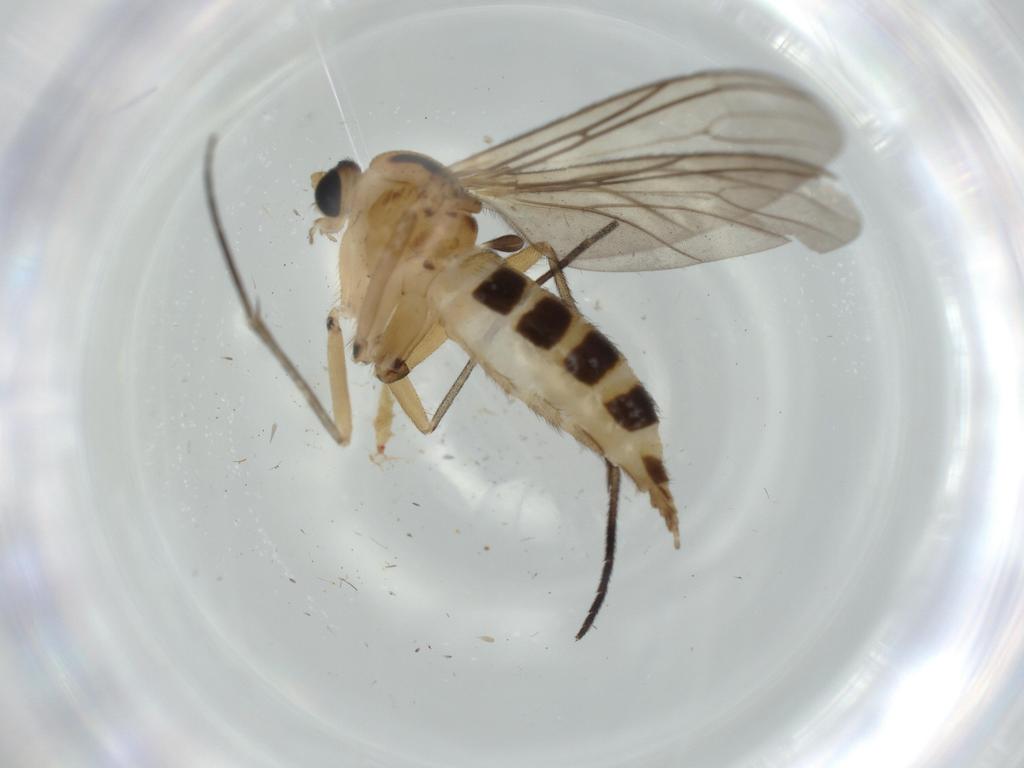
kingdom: Animalia
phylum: Arthropoda
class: Insecta
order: Diptera
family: Sciaridae
